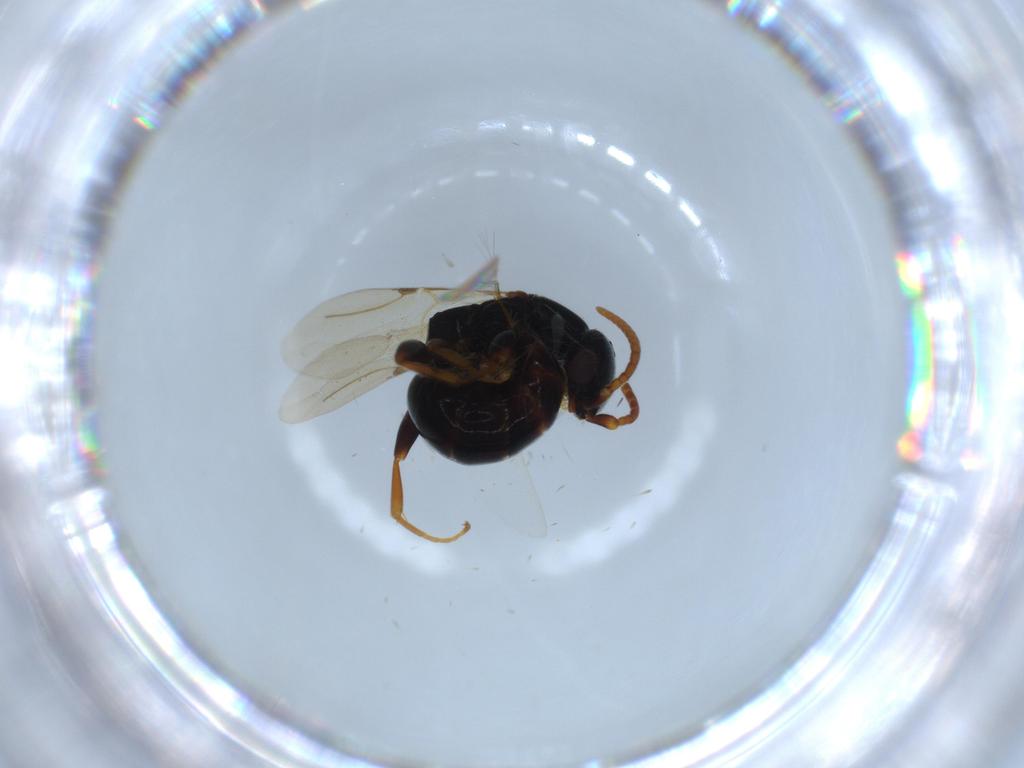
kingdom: Animalia
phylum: Arthropoda
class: Insecta
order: Hymenoptera
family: Bethylidae
